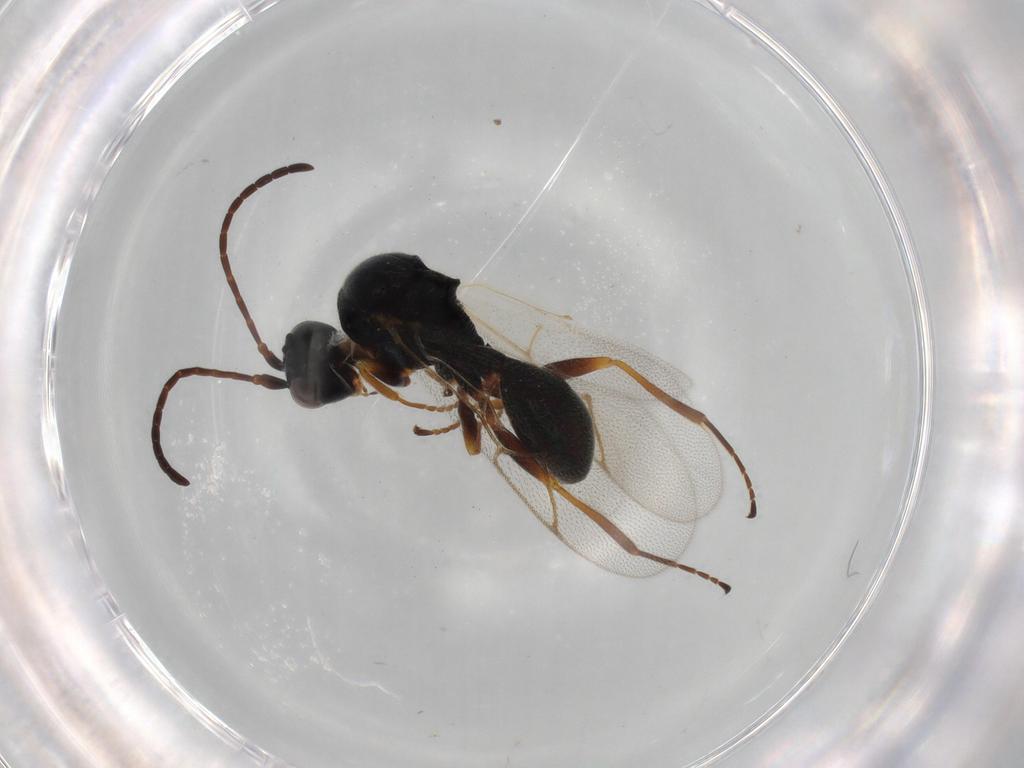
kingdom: Animalia
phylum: Arthropoda
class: Insecta
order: Hymenoptera
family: Figitidae
